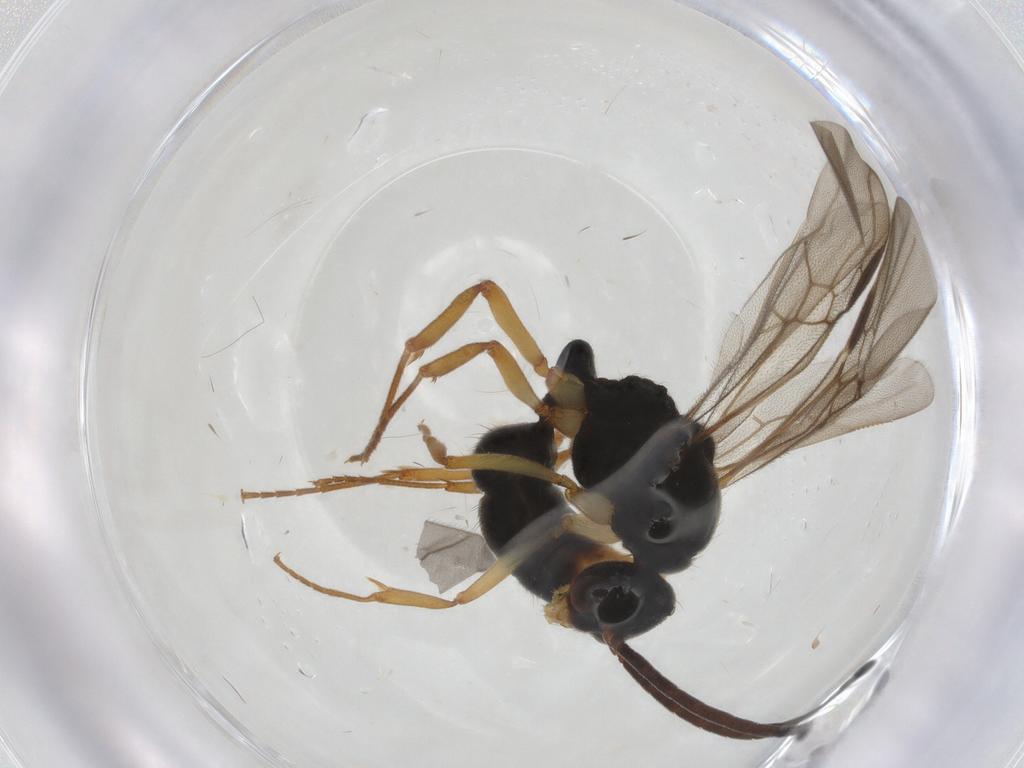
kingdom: Animalia
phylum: Arthropoda
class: Insecta
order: Hymenoptera
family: Formicidae
